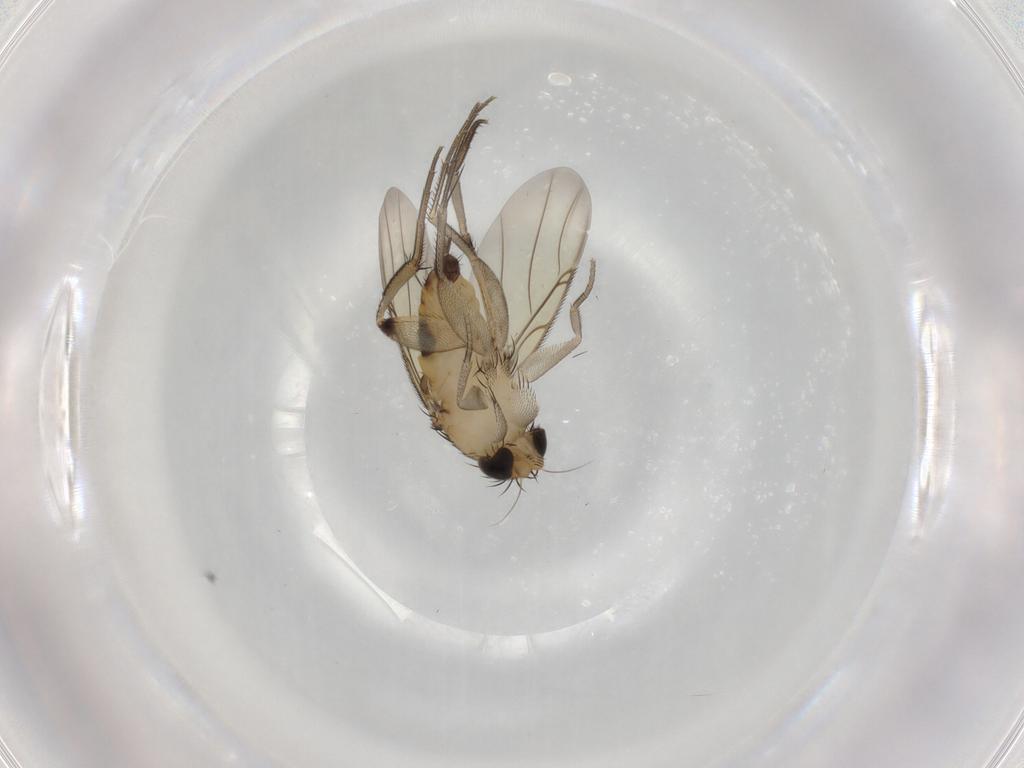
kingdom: Animalia
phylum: Arthropoda
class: Insecta
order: Diptera
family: Phoridae
